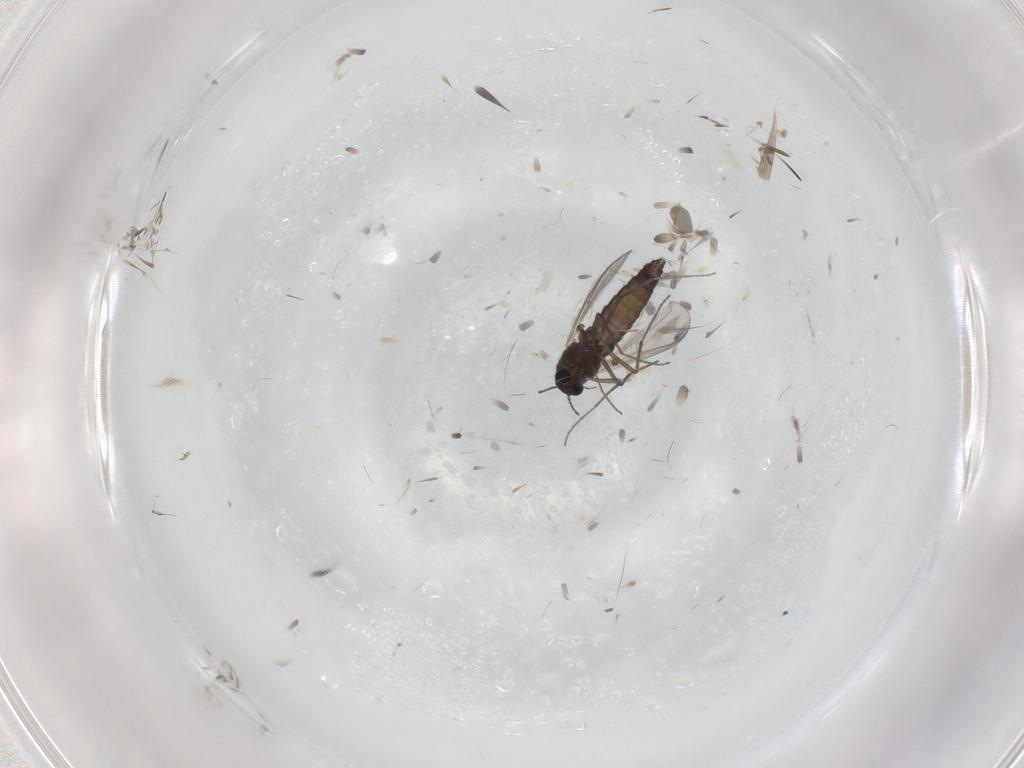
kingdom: Animalia
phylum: Arthropoda
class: Insecta
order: Diptera
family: Chironomidae
